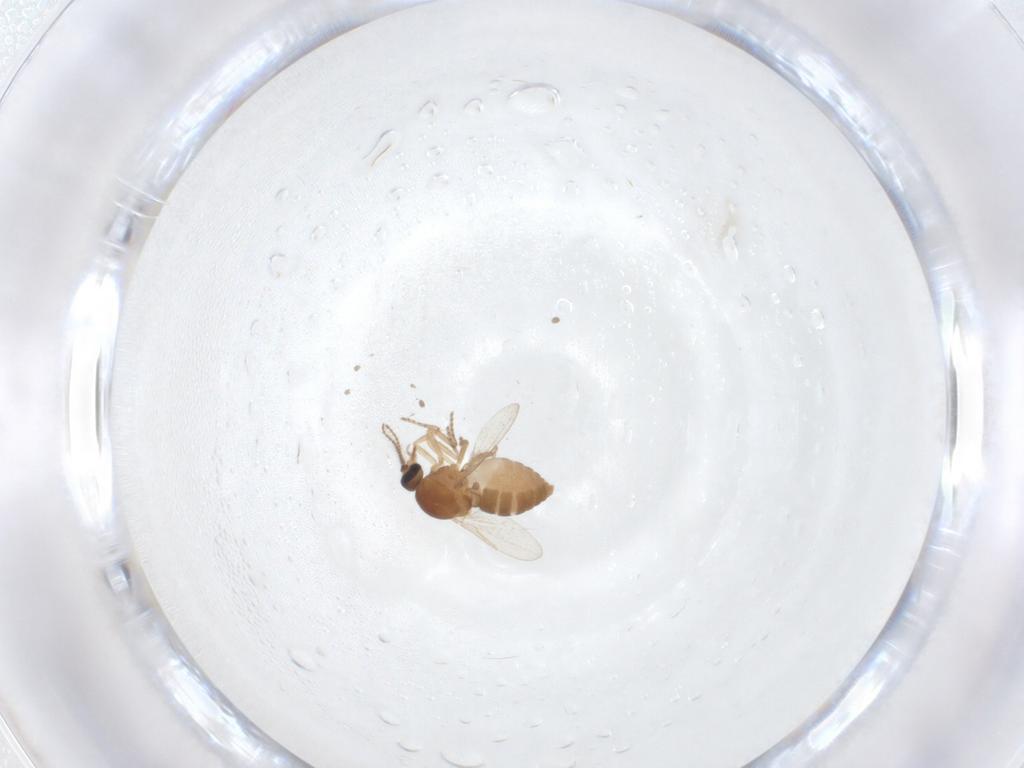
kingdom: Animalia
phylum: Arthropoda
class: Insecta
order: Diptera
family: Ceratopogonidae
